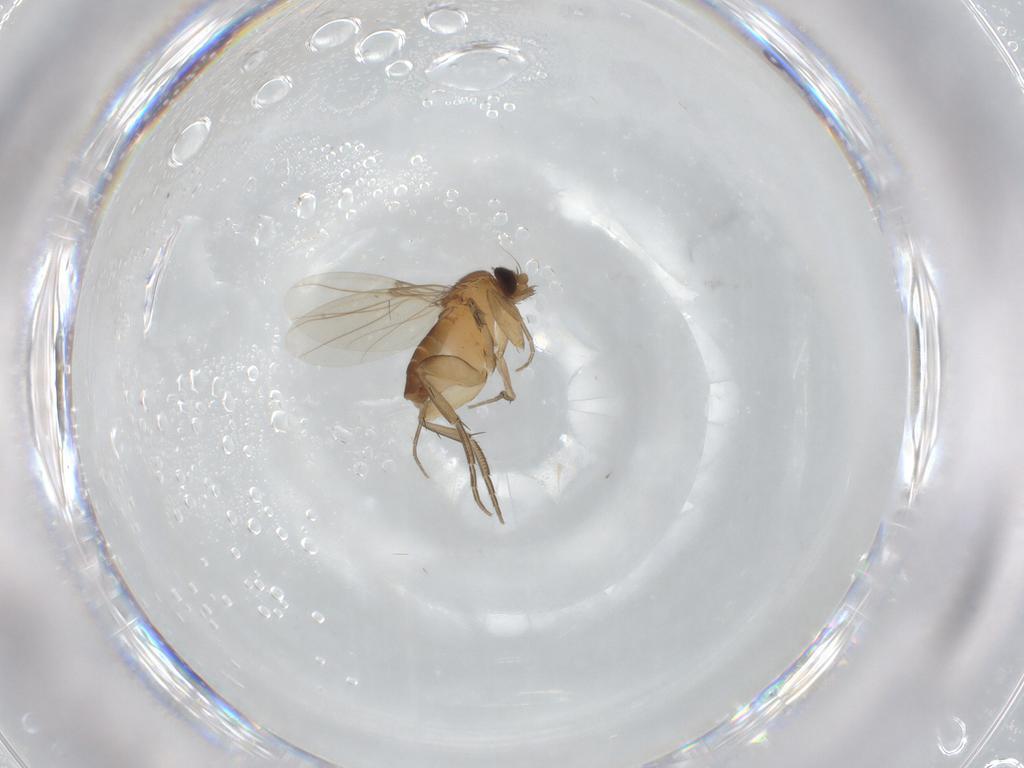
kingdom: Animalia
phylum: Arthropoda
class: Insecta
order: Diptera
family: Phoridae
